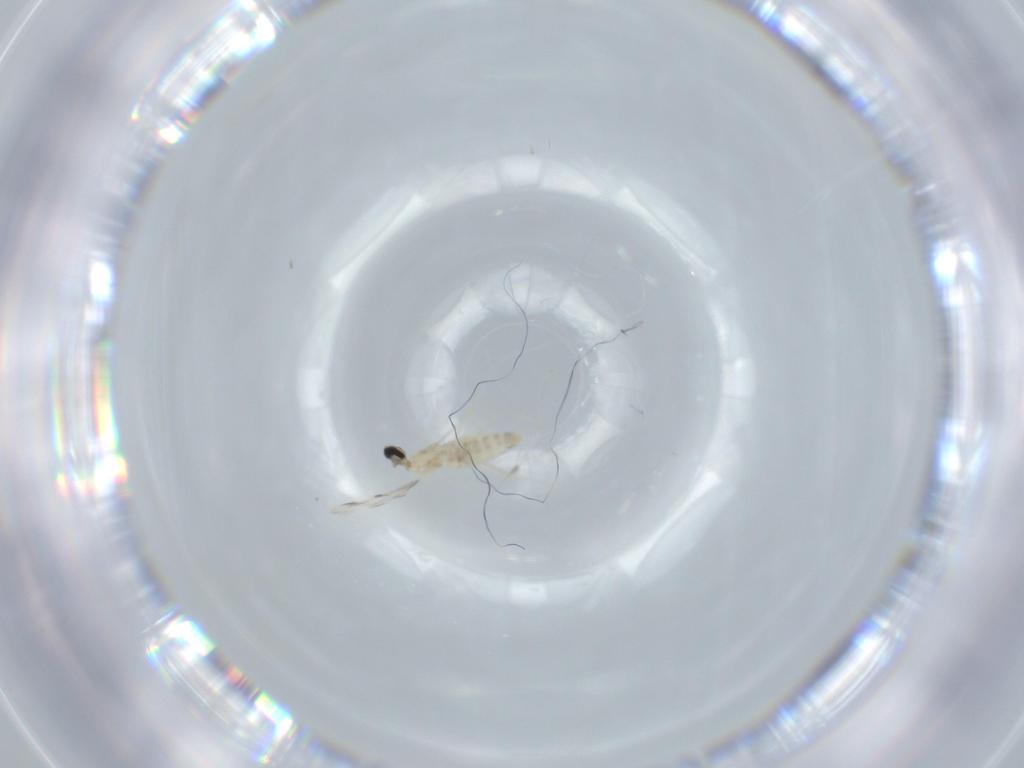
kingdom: Animalia
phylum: Arthropoda
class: Insecta
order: Diptera
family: Cecidomyiidae
